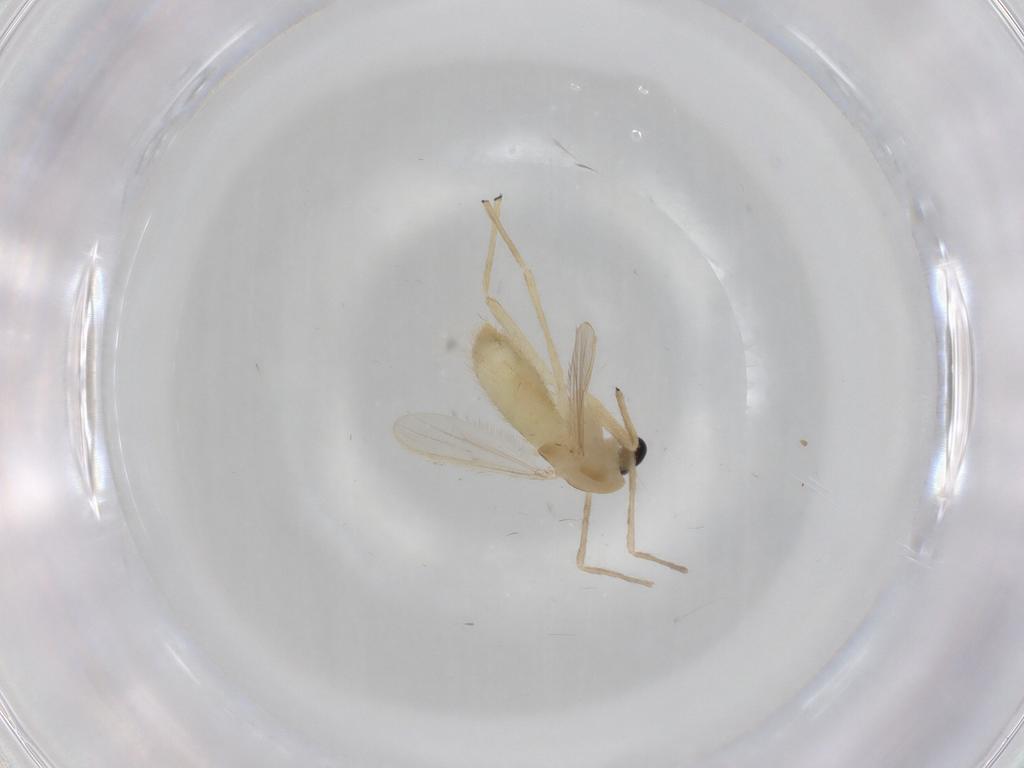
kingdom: Animalia
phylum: Arthropoda
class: Insecta
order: Diptera
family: Chironomidae
